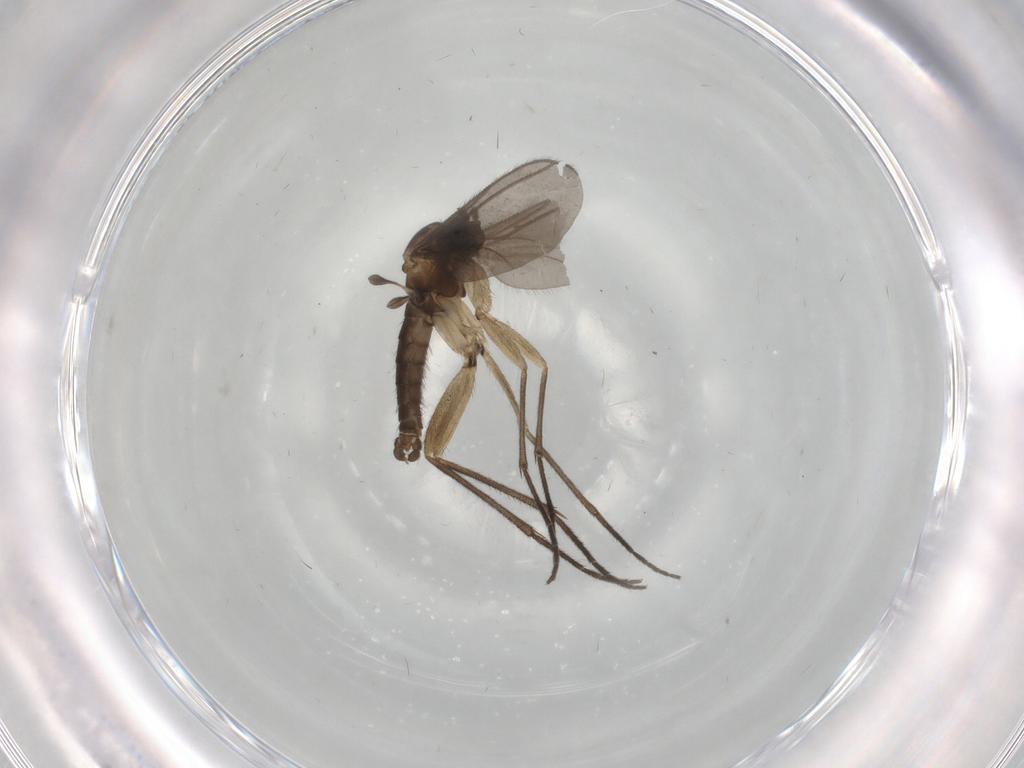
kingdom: Animalia
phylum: Arthropoda
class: Insecta
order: Diptera
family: Sciaridae
